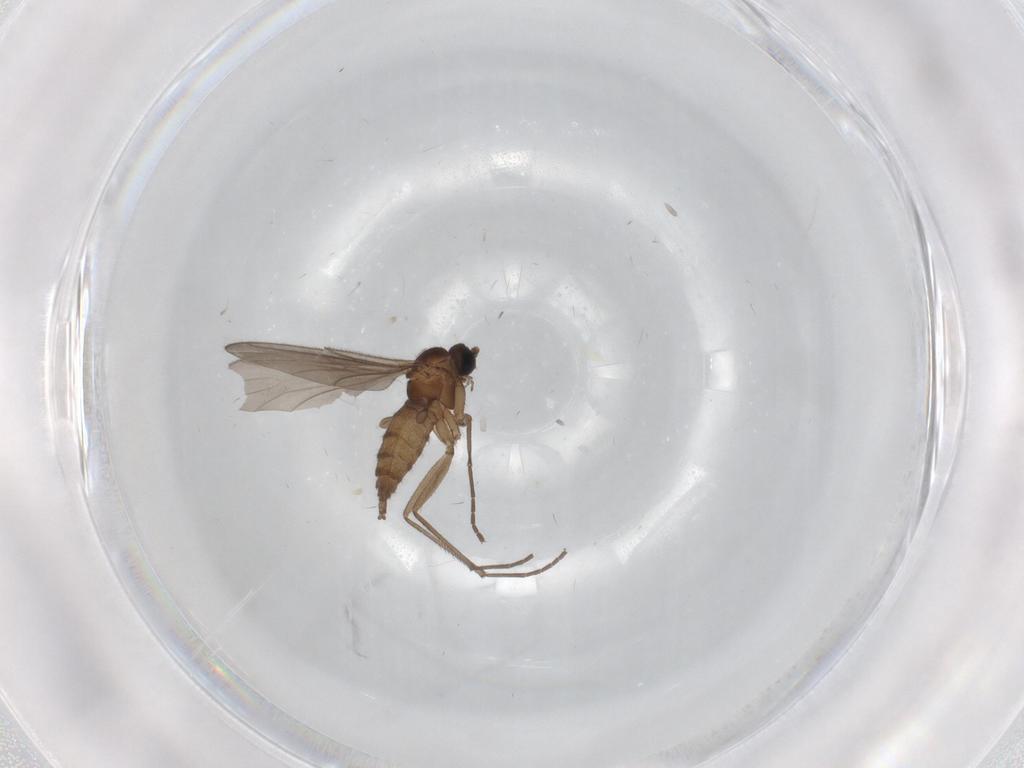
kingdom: Animalia
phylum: Arthropoda
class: Insecta
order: Diptera
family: Sciaridae
